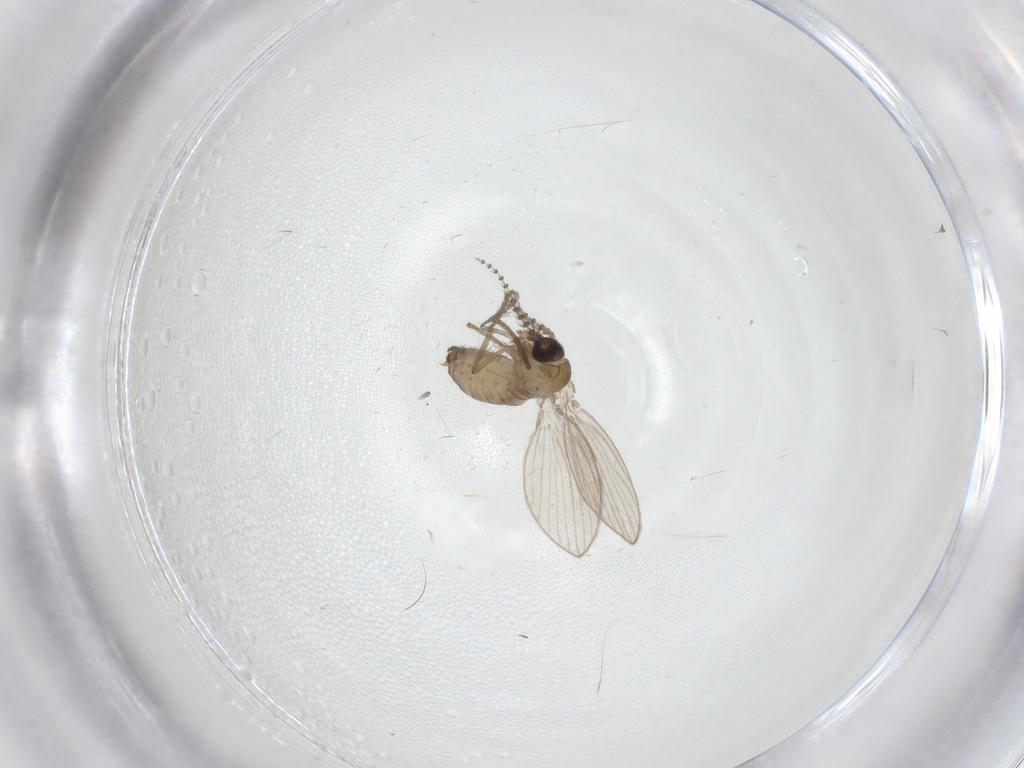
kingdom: Animalia
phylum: Arthropoda
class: Insecta
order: Diptera
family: Psychodidae
